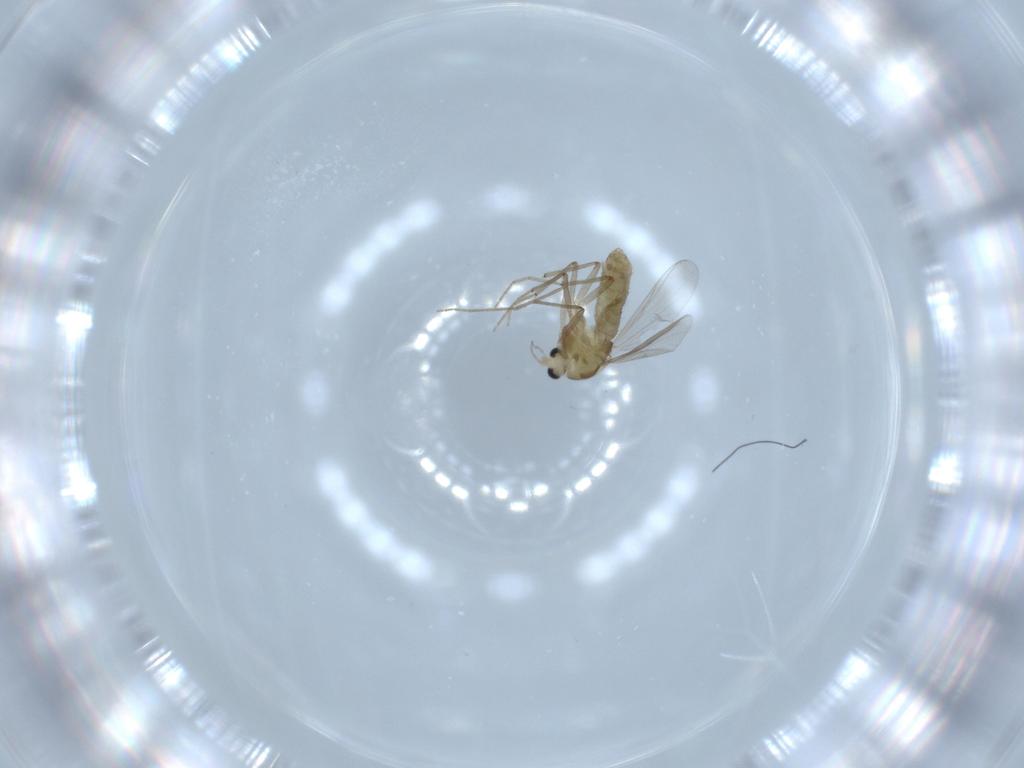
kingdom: Animalia
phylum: Arthropoda
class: Insecta
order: Diptera
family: Chironomidae
